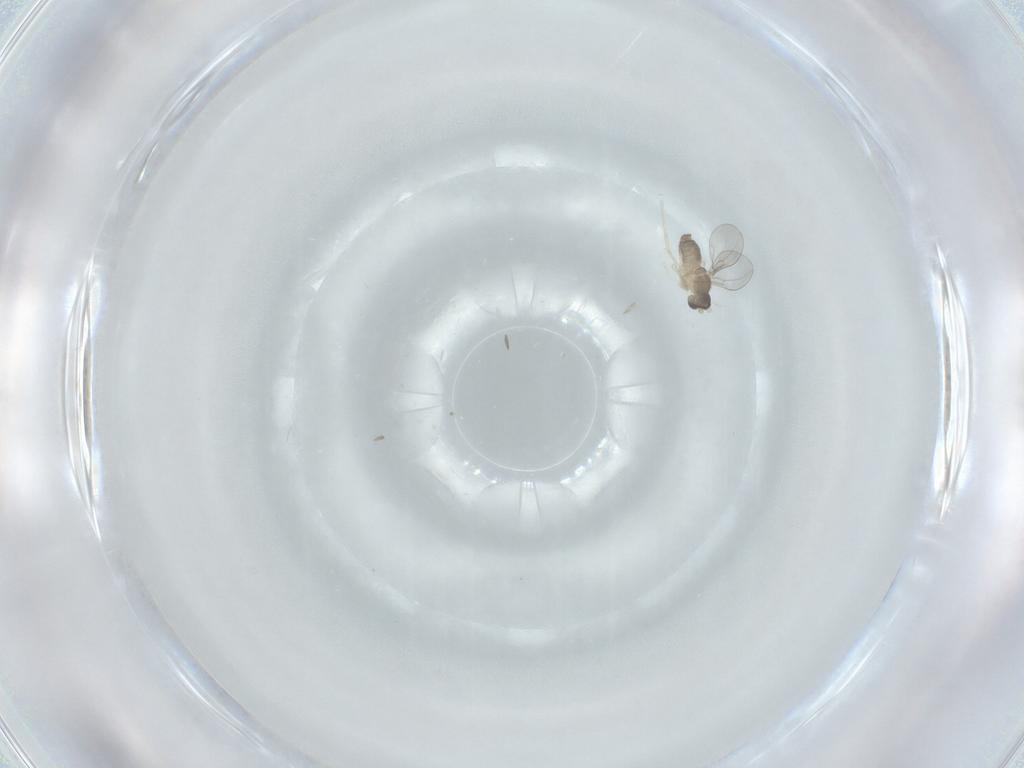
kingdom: Animalia
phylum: Arthropoda
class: Insecta
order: Diptera
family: Cecidomyiidae
